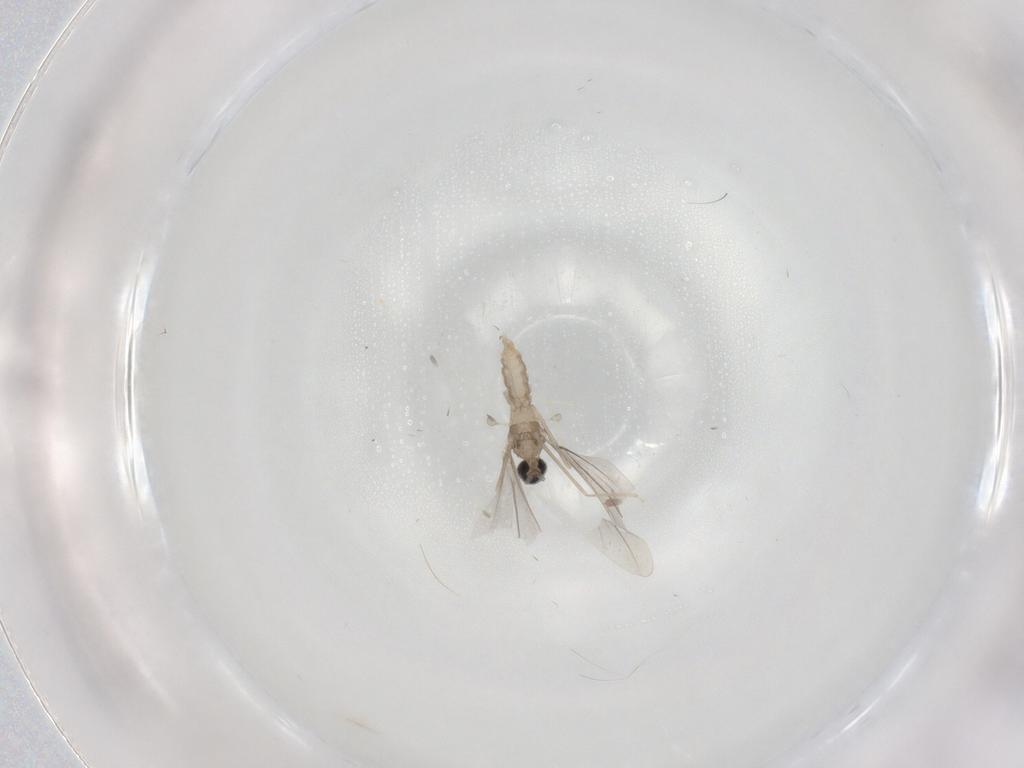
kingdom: Animalia
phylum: Arthropoda
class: Insecta
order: Diptera
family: Cecidomyiidae
